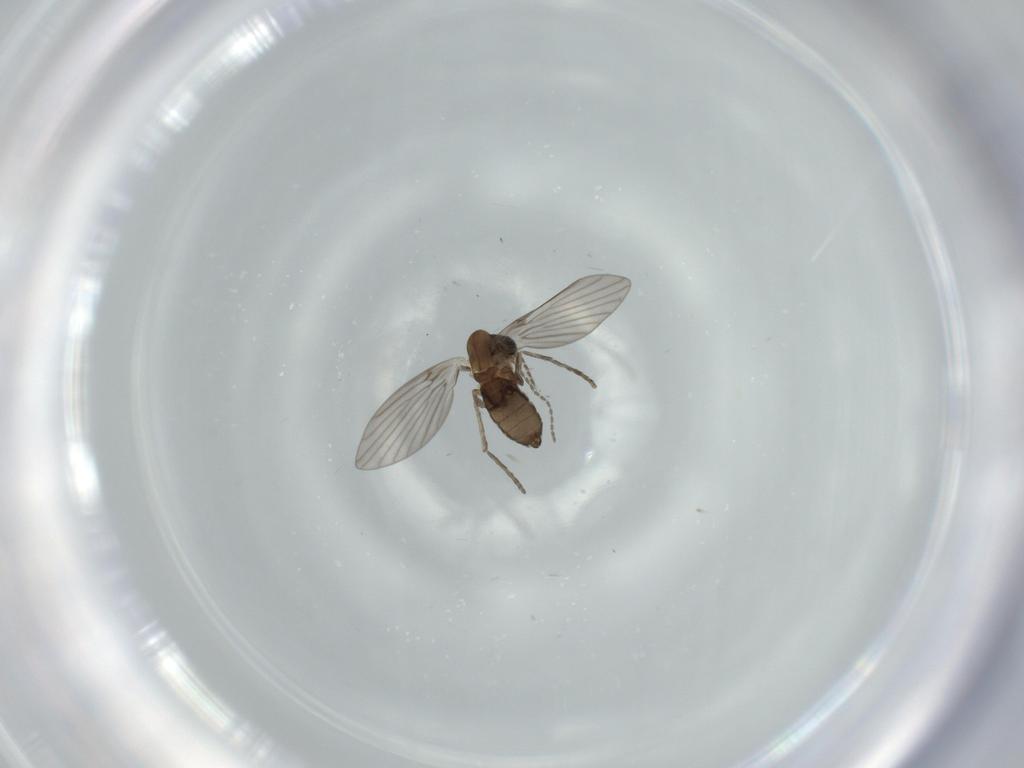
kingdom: Animalia
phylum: Arthropoda
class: Insecta
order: Diptera
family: Psychodidae
